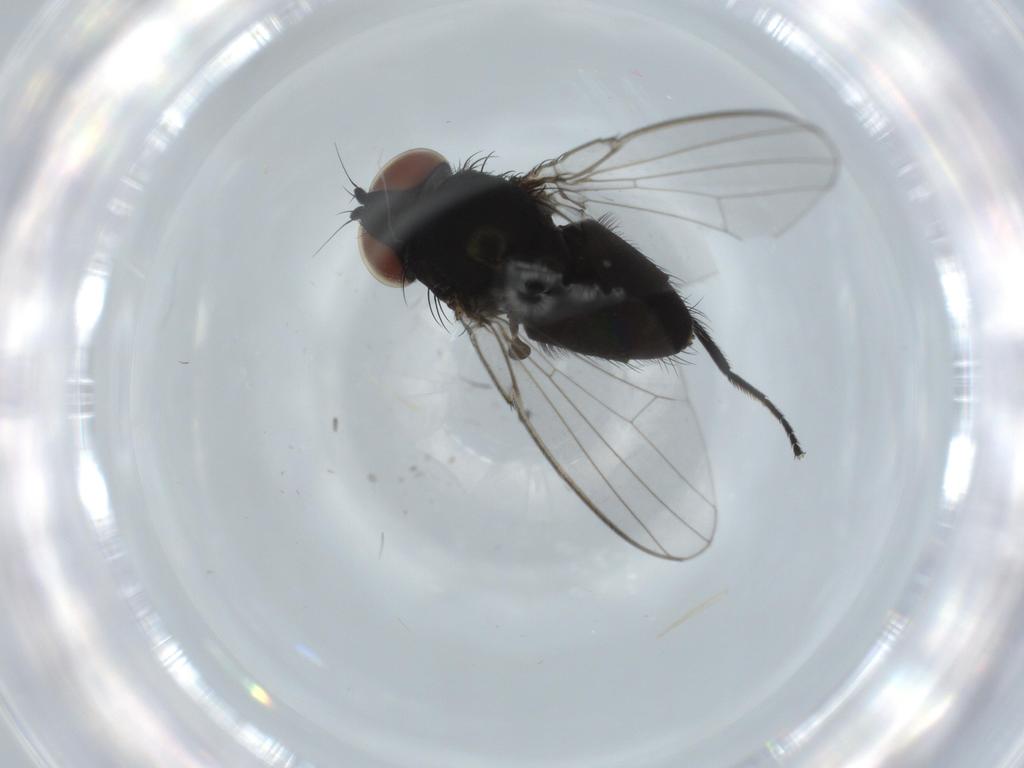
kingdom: Animalia
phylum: Arthropoda
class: Insecta
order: Diptera
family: Milichiidae
